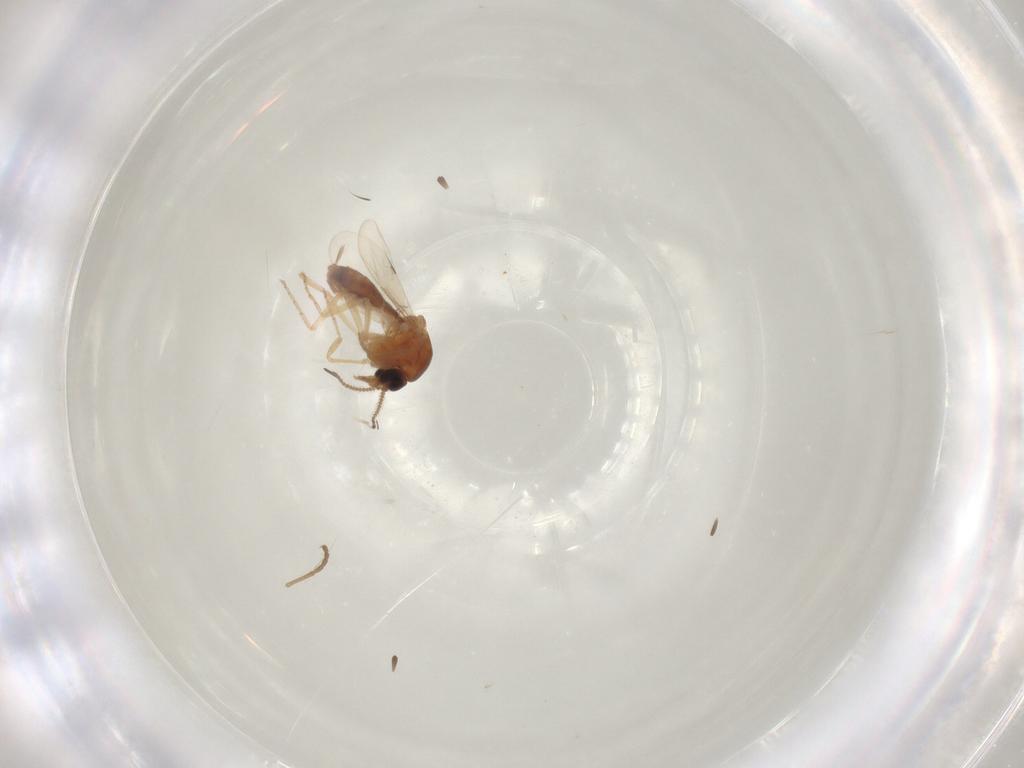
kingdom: Animalia
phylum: Arthropoda
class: Insecta
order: Diptera
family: Ceratopogonidae
